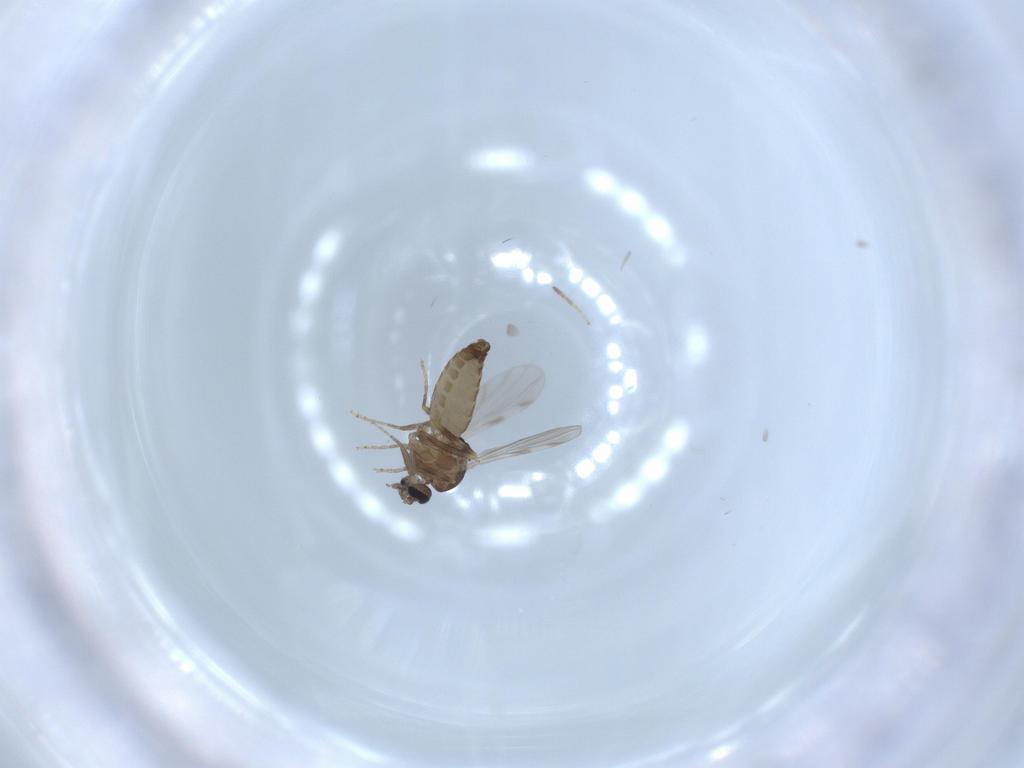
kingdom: Animalia
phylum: Arthropoda
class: Insecta
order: Diptera
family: Ceratopogonidae
